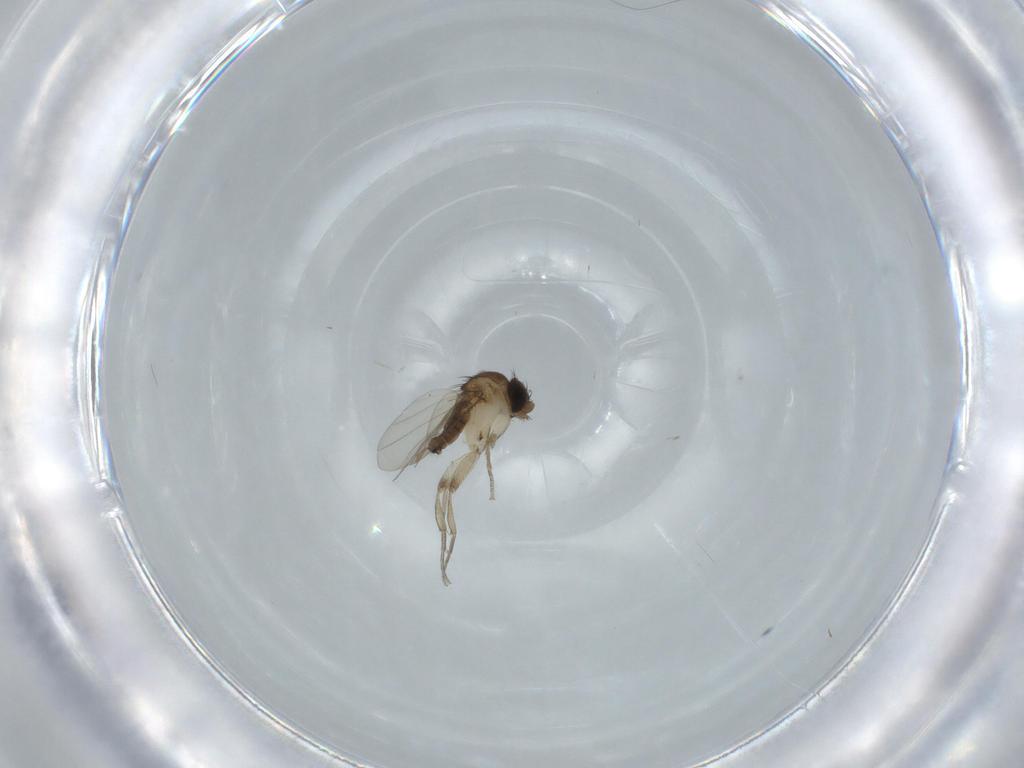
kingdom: Animalia
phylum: Arthropoda
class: Insecta
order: Diptera
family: Phoridae
